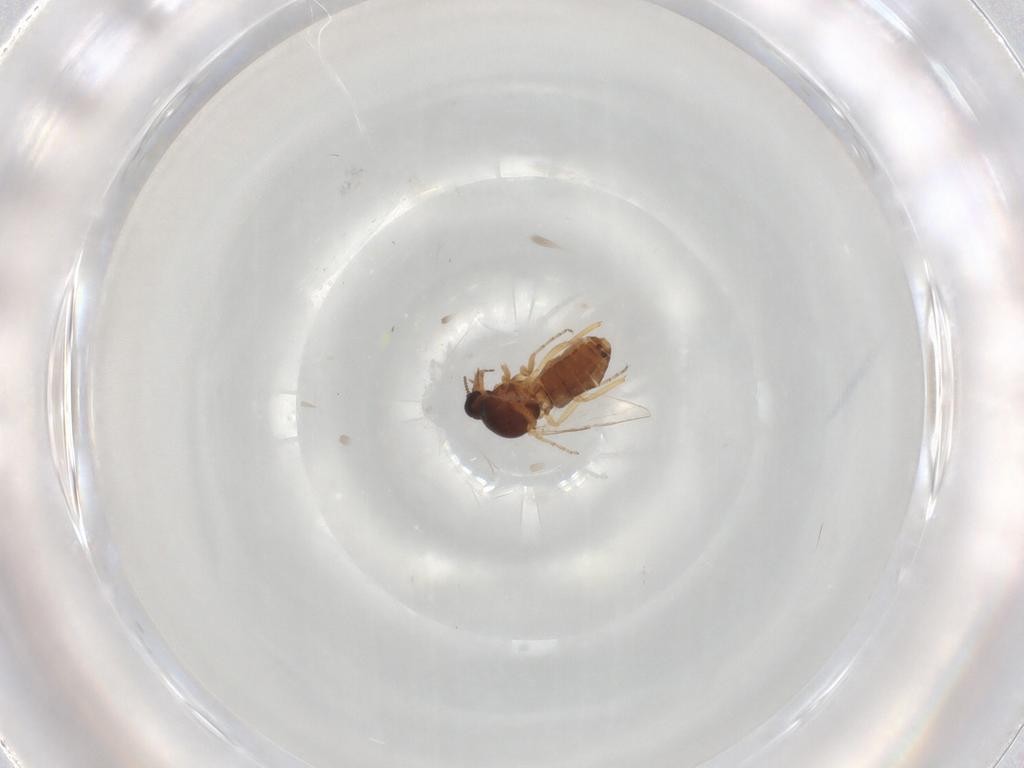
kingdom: Animalia
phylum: Arthropoda
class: Insecta
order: Diptera
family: Ceratopogonidae
